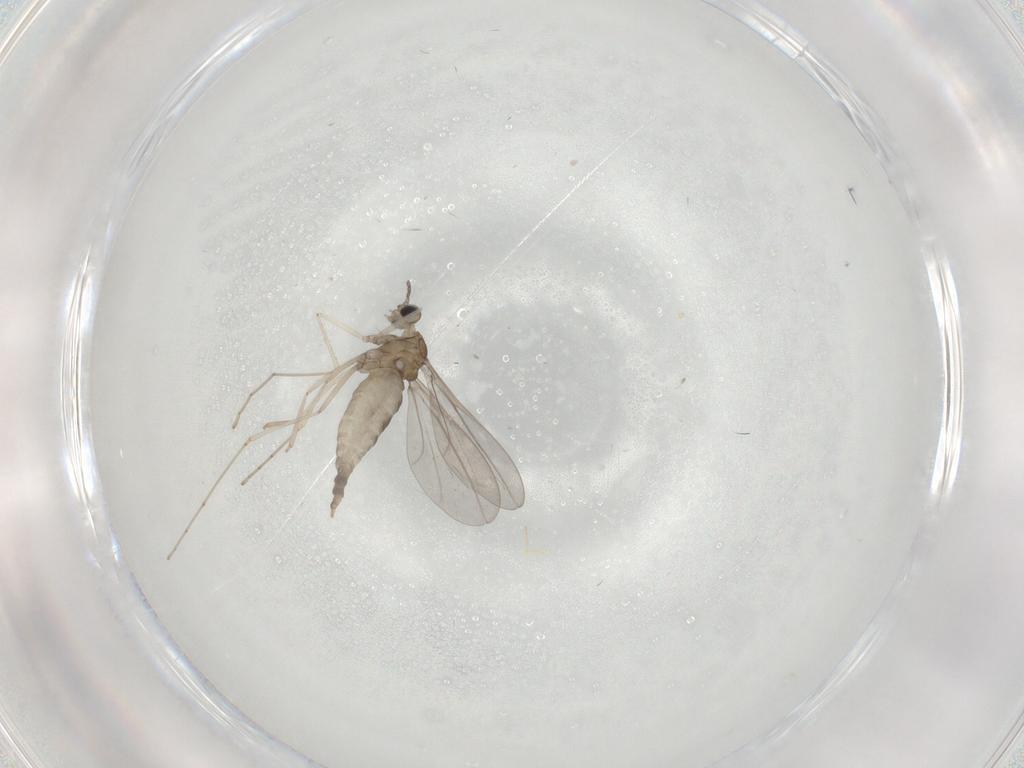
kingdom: Animalia
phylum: Arthropoda
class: Insecta
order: Diptera
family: Cecidomyiidae
